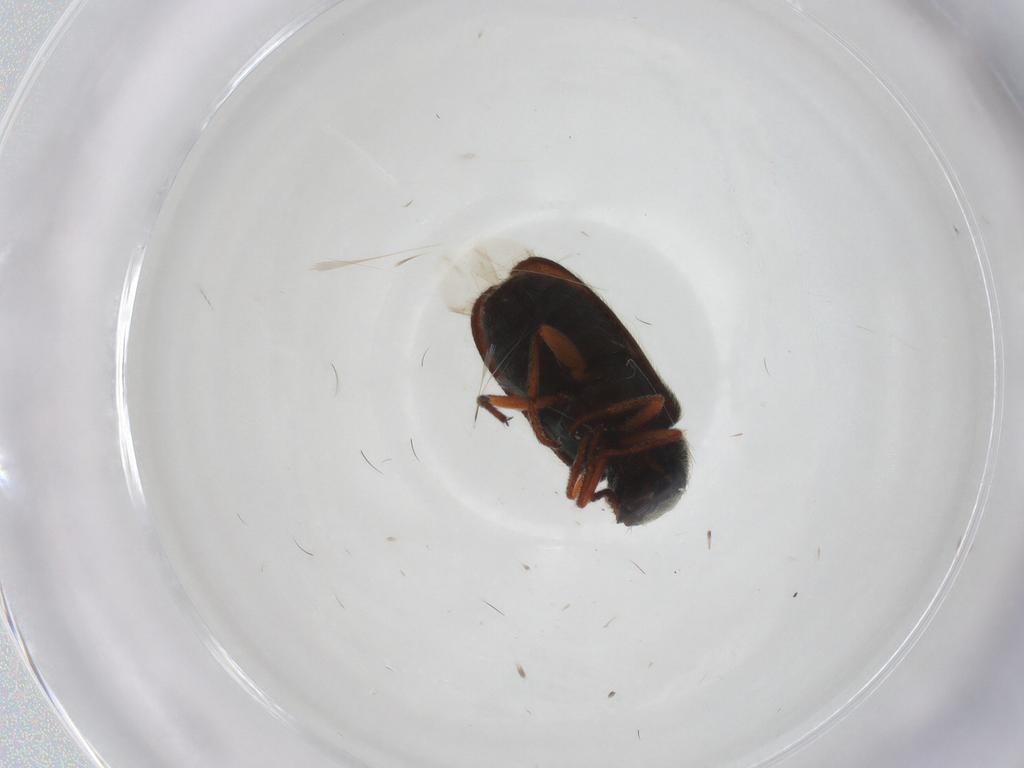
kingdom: Animalia
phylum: Arthropoda
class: Insecta
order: Coleoptera
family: Melyridae
